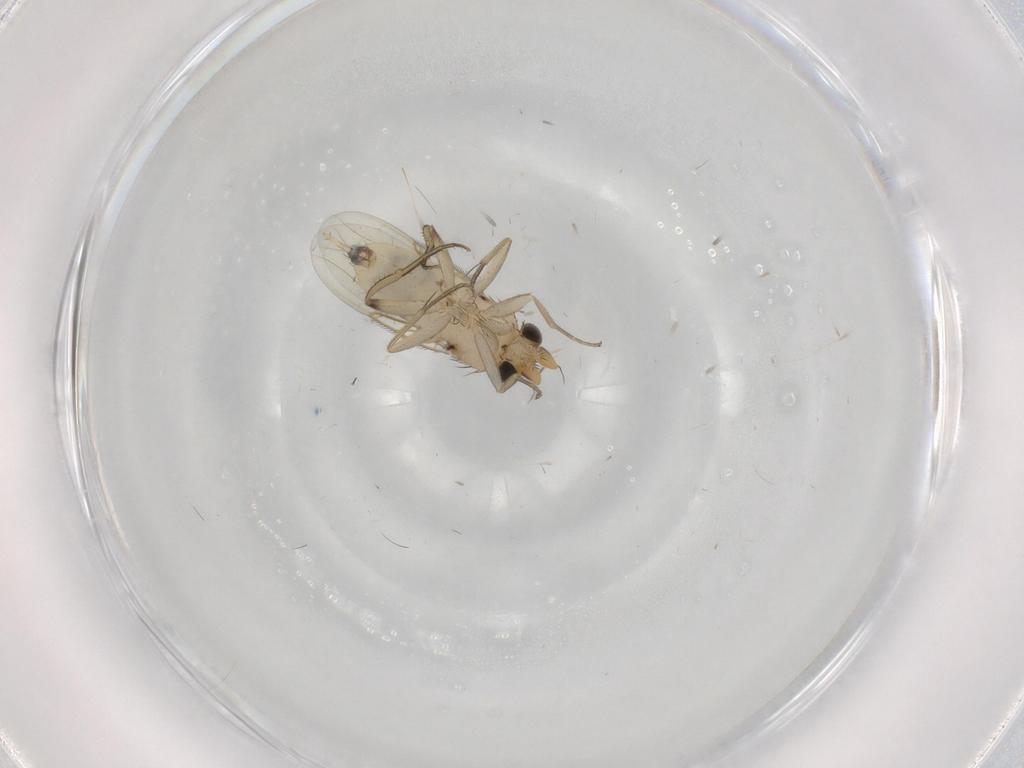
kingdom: Animalia
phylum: Arthropoda
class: Insecta
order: Diptera
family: Phoridae
